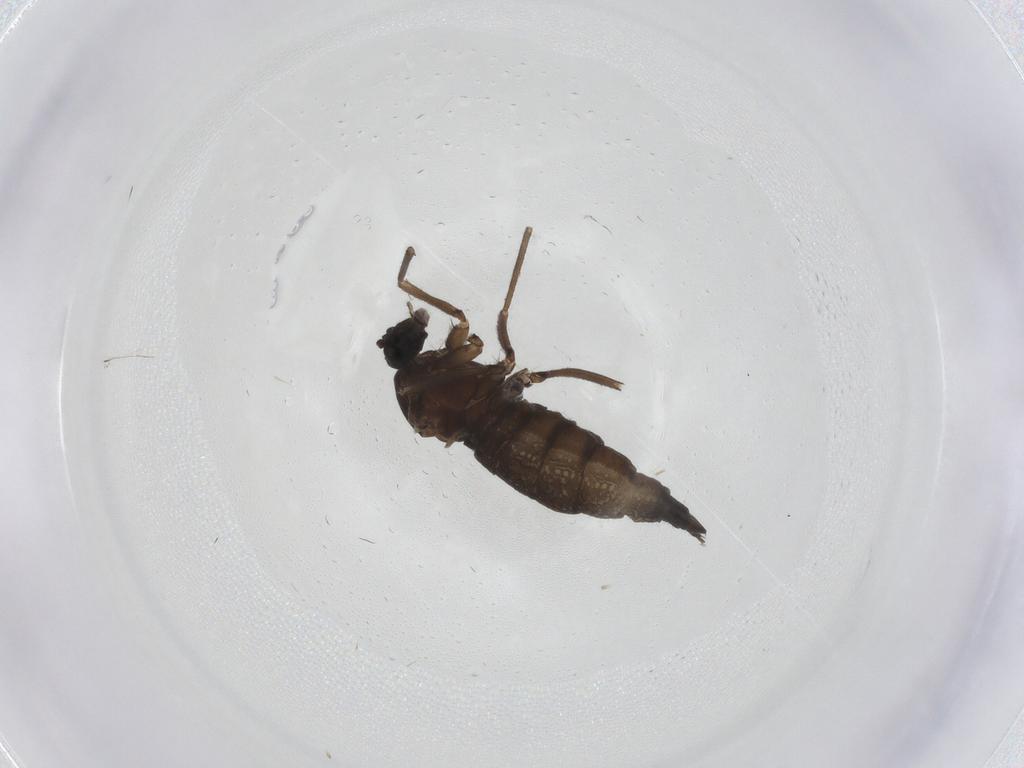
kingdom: Animalia
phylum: Arthropoda
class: Insecta
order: Diptera
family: Sciaridae
